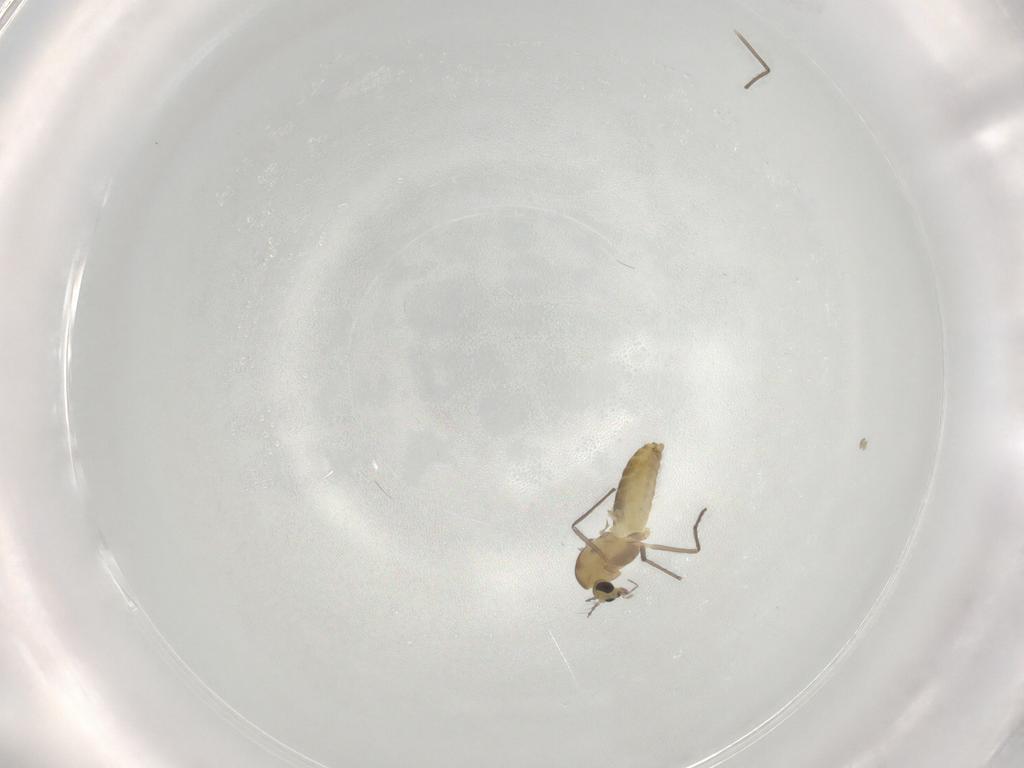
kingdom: Animalia
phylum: Arthropoda
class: Insecta
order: Diptera
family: Chironomidae
